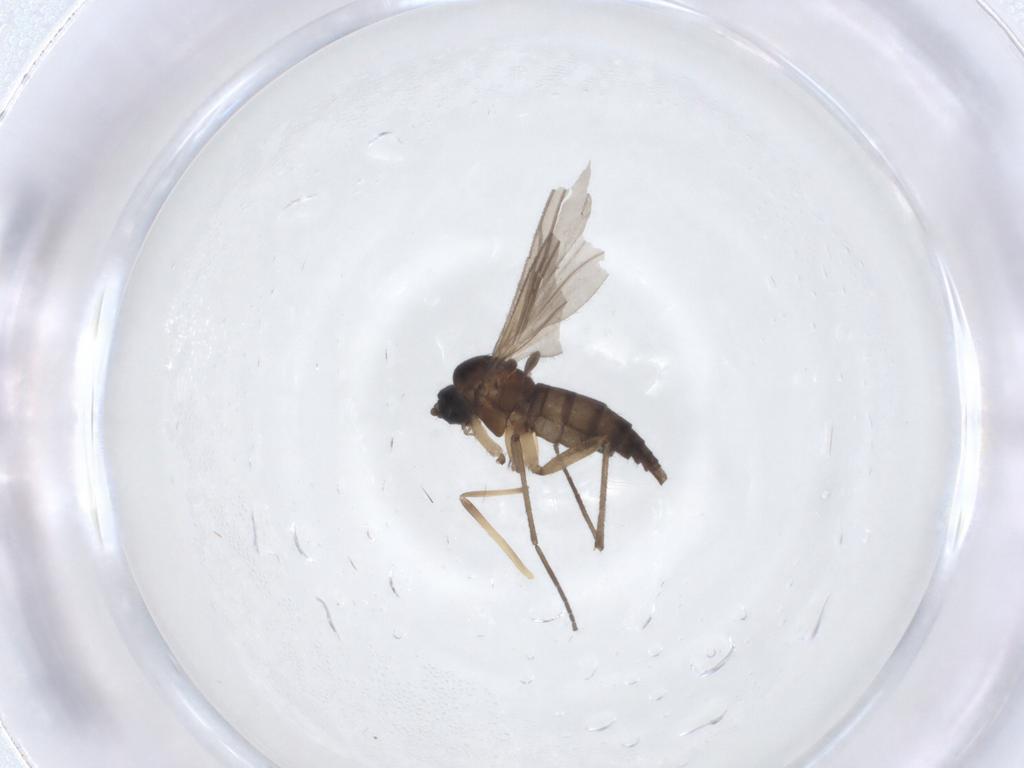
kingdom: Animalia
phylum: Arthropoda
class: Insecta
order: Diptera
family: Sciaridae
